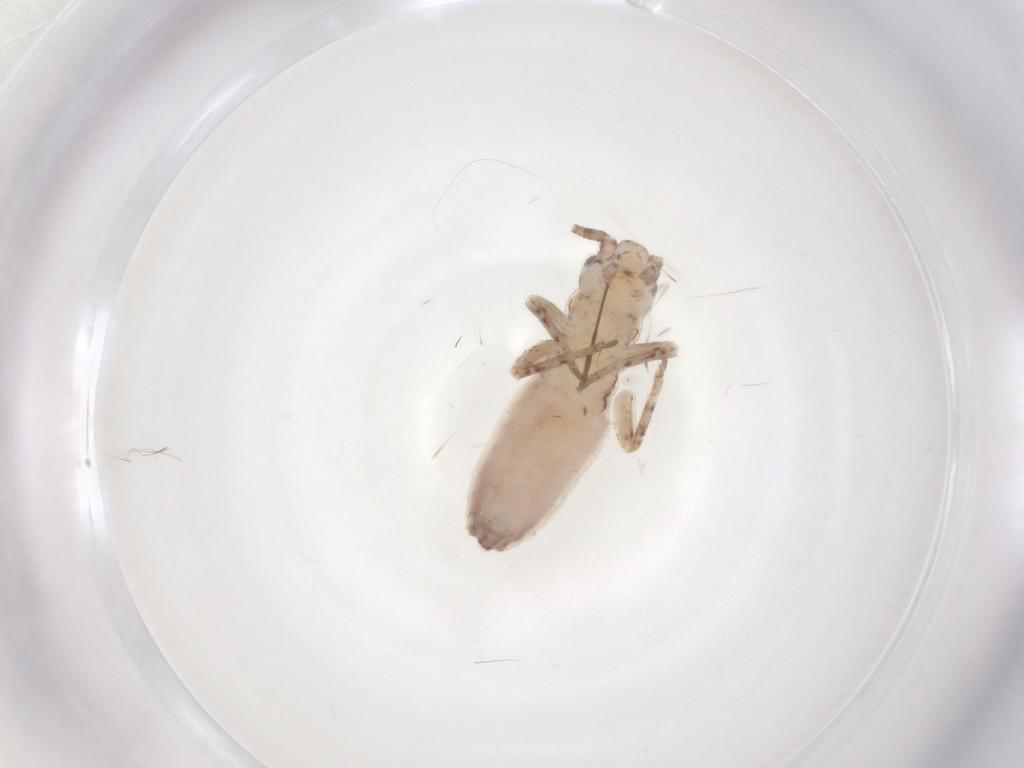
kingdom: Animalia
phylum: Arthropoda
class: Insecta
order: Orthoptera
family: Mogoplistidae
